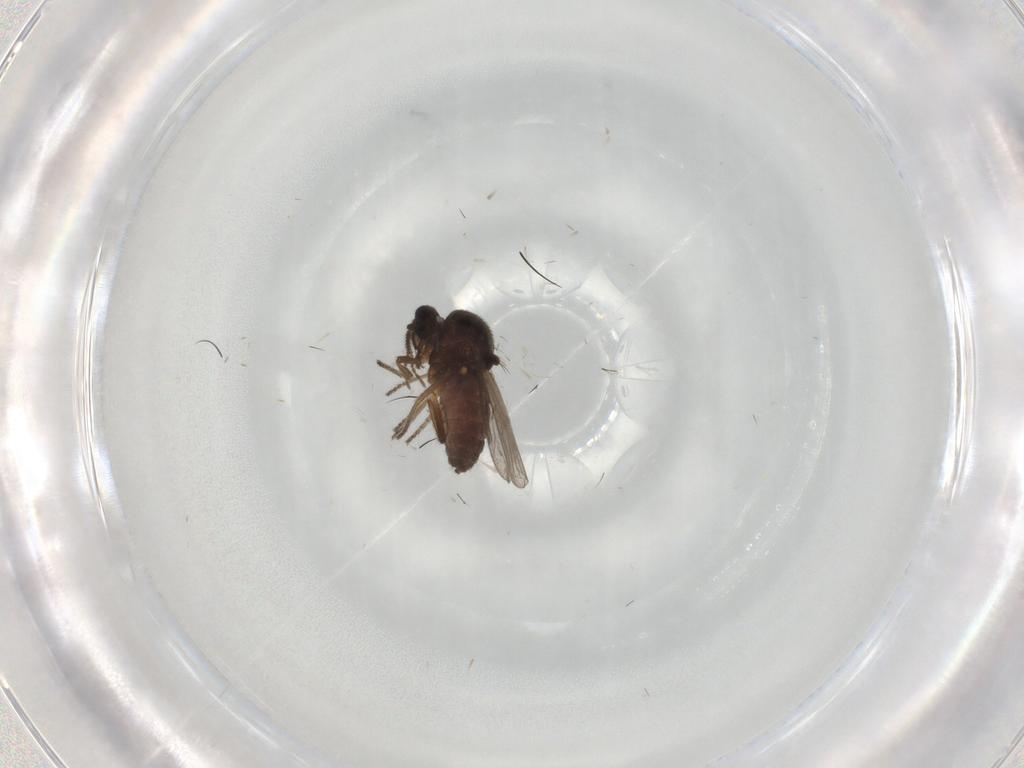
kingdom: Animalia
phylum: Arthropoda
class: Insecta
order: Diptera
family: Ceratopogonidae
